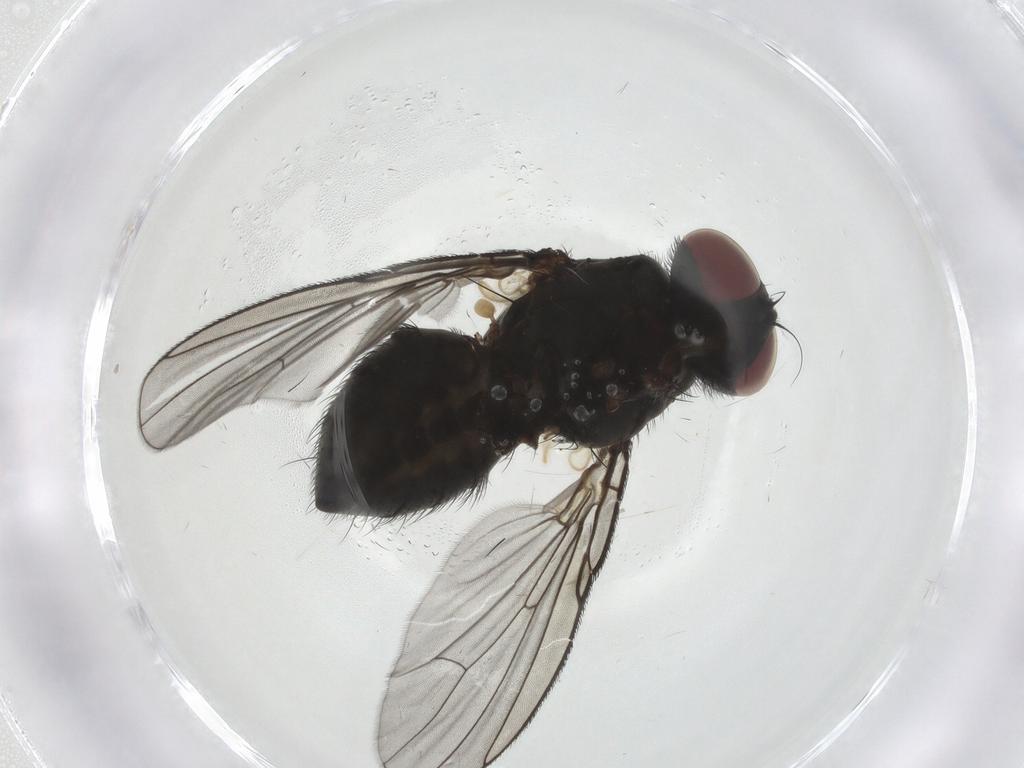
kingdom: Animalia
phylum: Arthropoda
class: Insecta
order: Diptera
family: Muscidae
